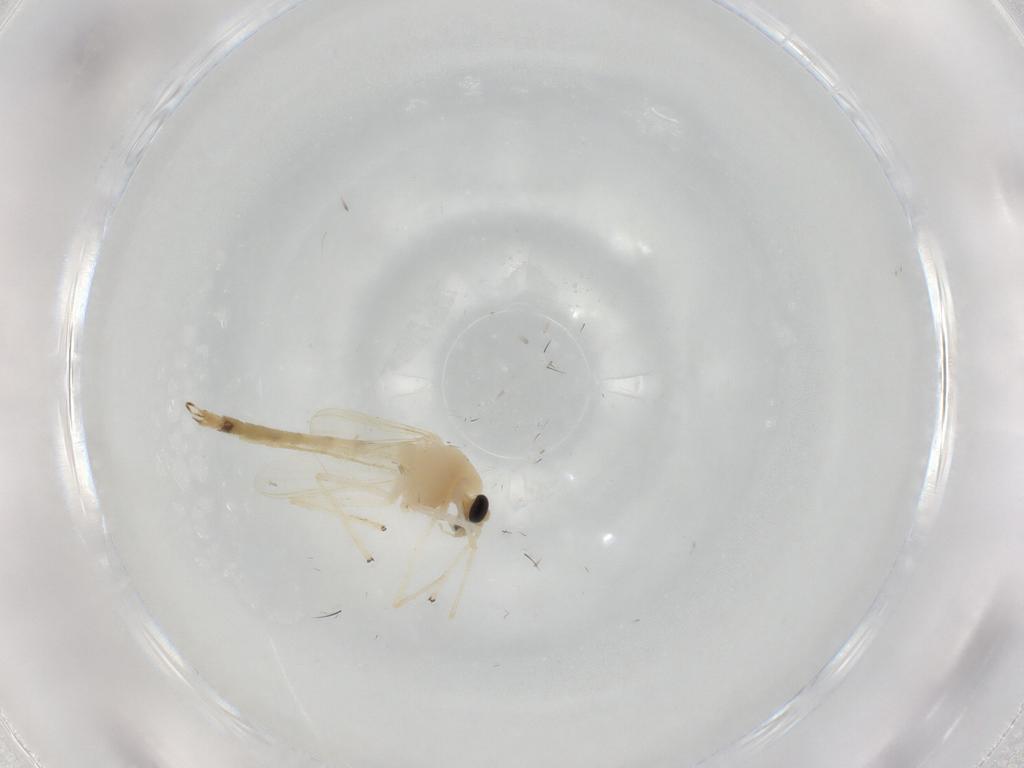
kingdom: Animalia
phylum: Arthropoda
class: Insecta
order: Diptera
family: Chironomidae
